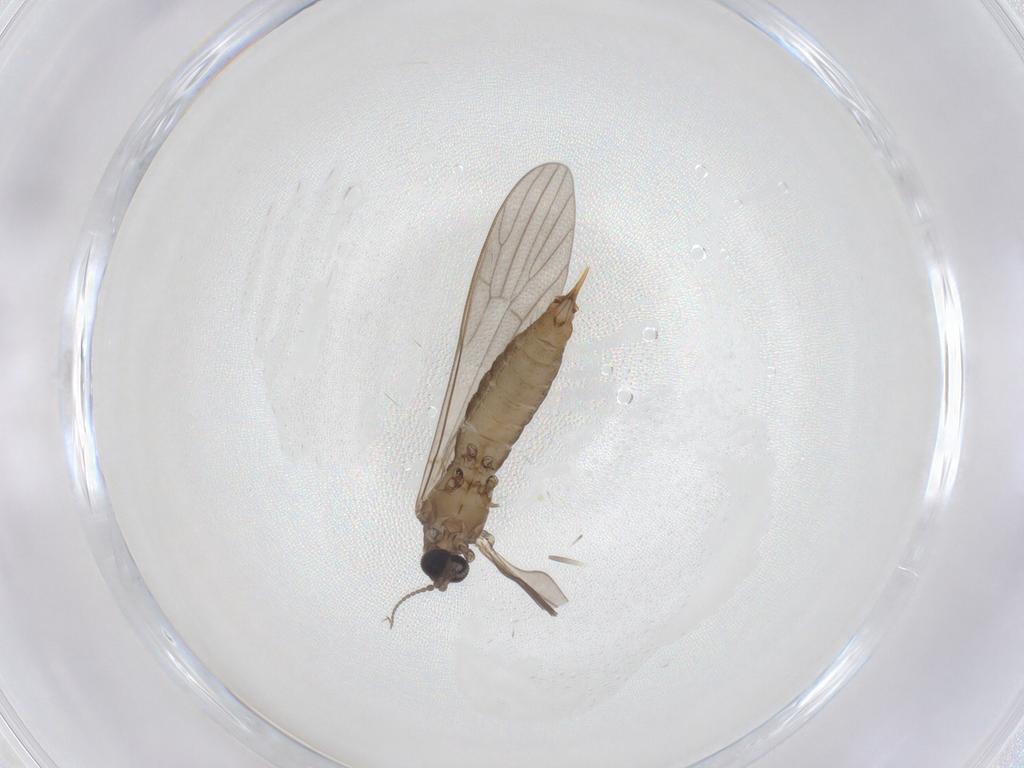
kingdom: Animalia
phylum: Arthropoda
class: Insecta
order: Diptera
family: Limoniidae
